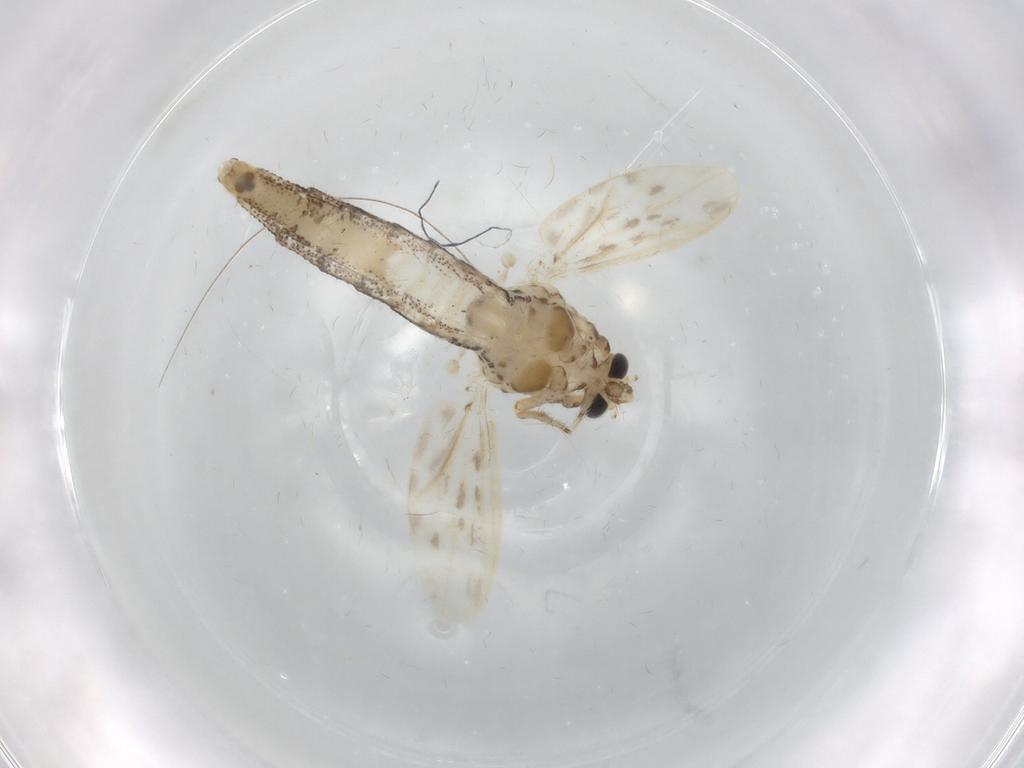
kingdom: Animalia
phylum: Arthropoda
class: Insecta
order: Diptera
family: Chaoboridae
